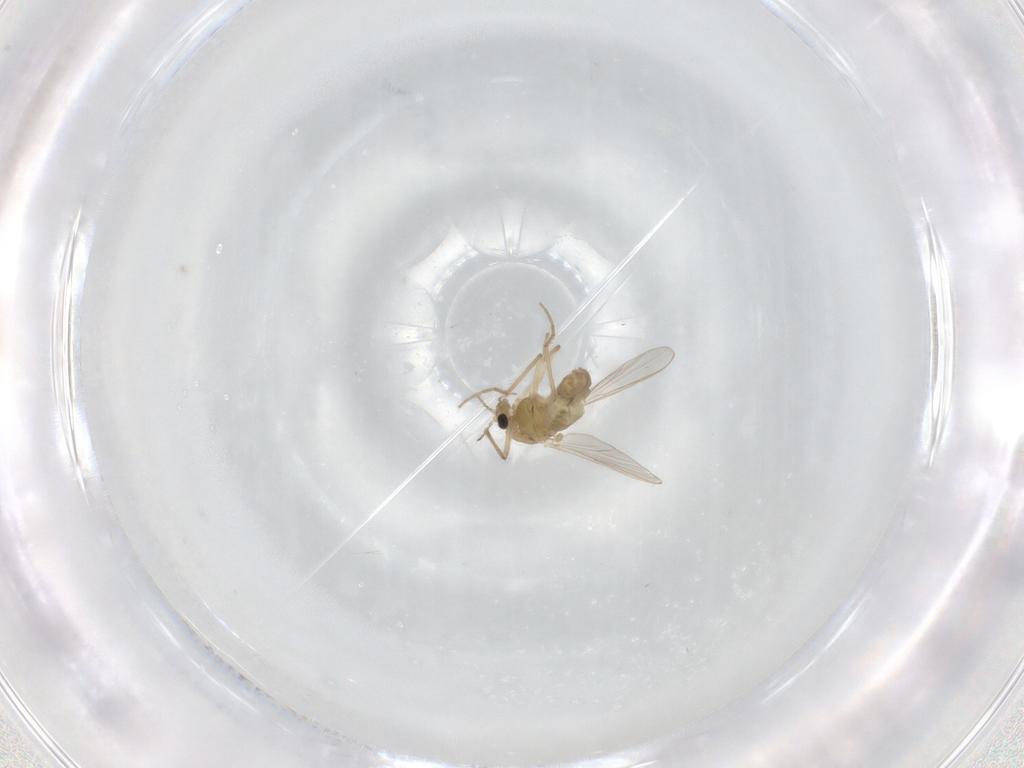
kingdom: Animalia
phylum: Arthropoda
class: Insecta
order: Diptera
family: Chironomidae
